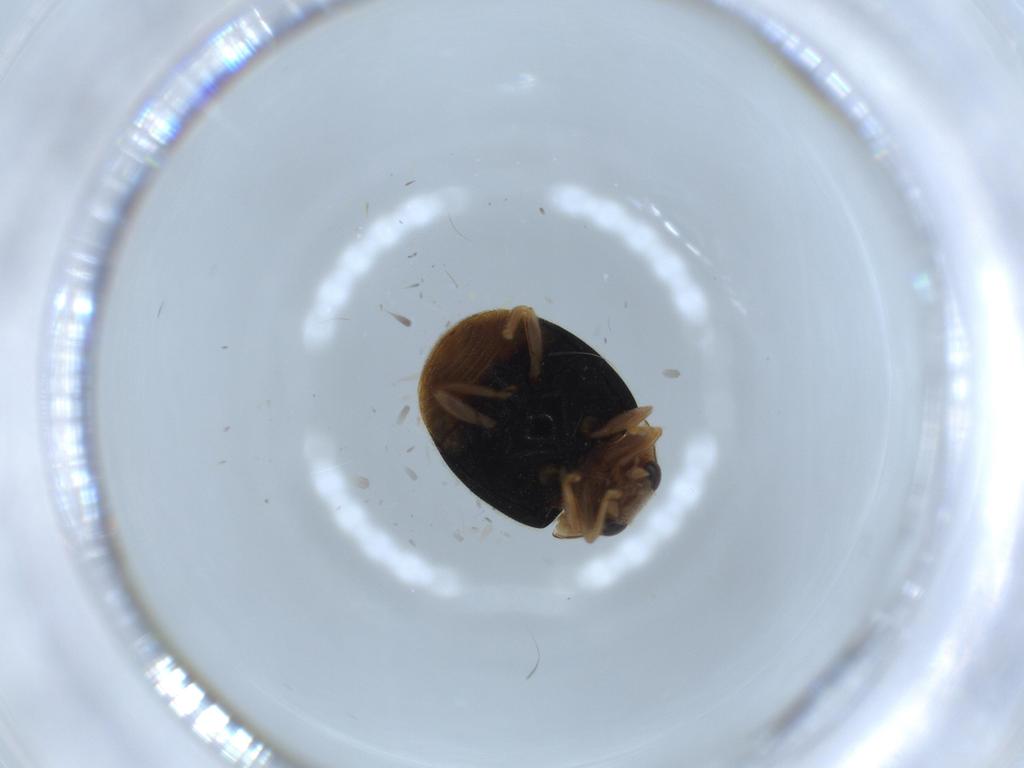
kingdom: Animalia
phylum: Arthropoda
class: Insecta
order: Coleoptera
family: Coccinellidae
